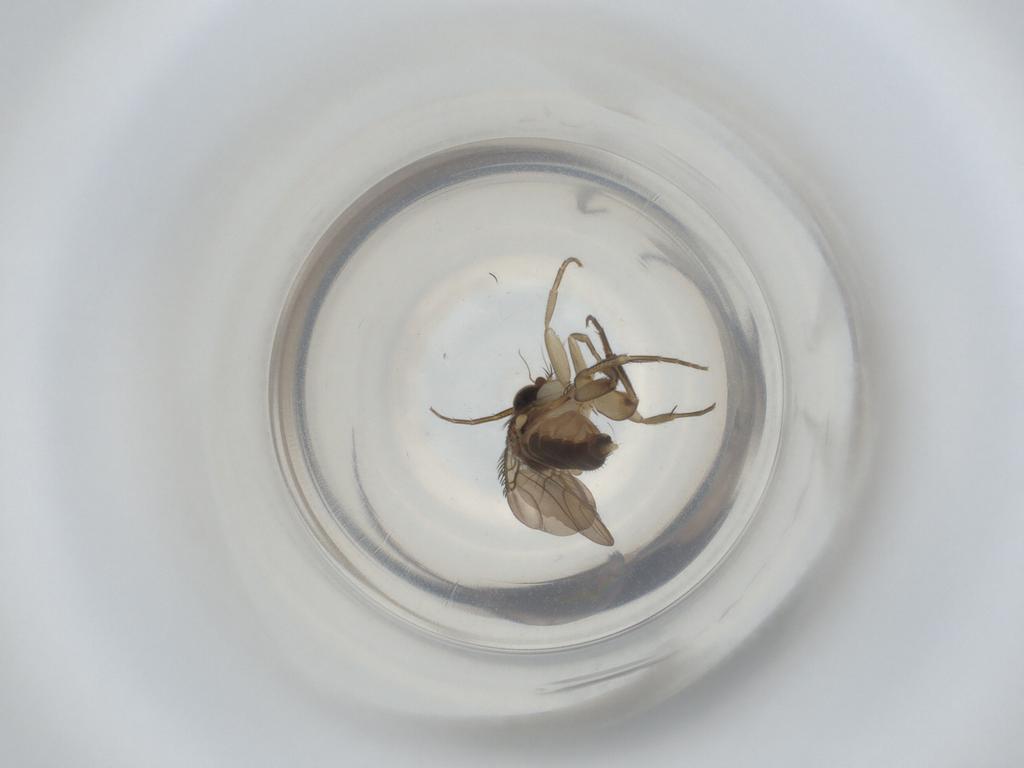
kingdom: Animalia
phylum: Arthropoda
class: Insecta
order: Diptera
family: Phoridae
